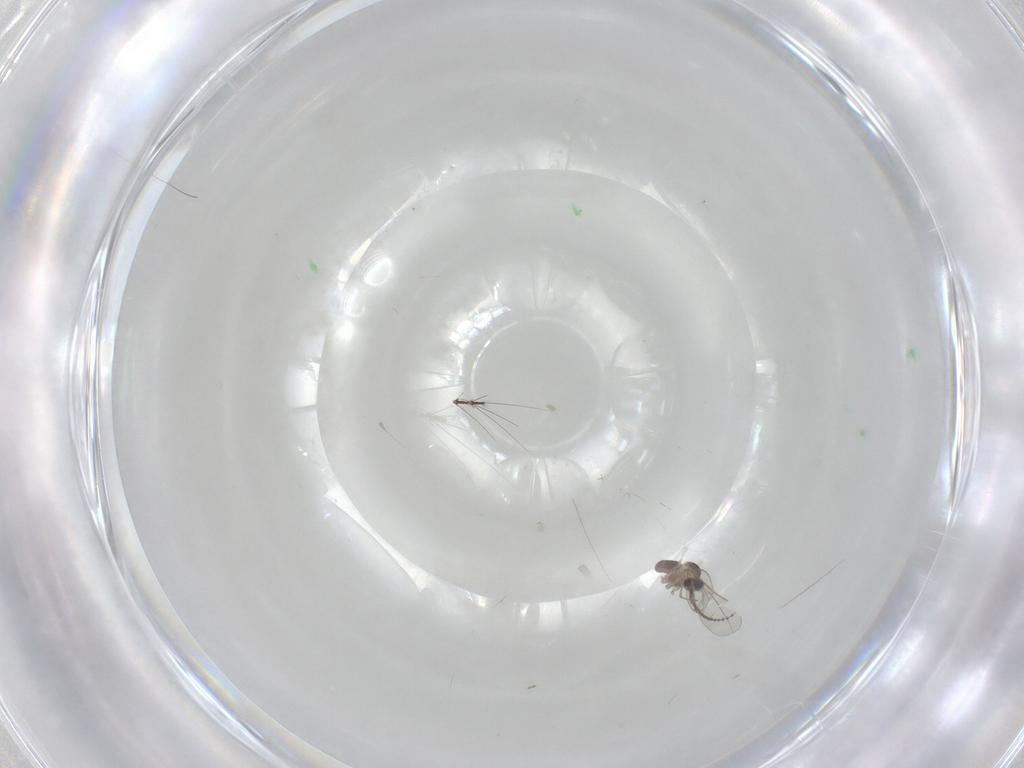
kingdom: Animalia
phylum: Arthropoda
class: Insecta
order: Diptera
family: Cecidomyiidae
